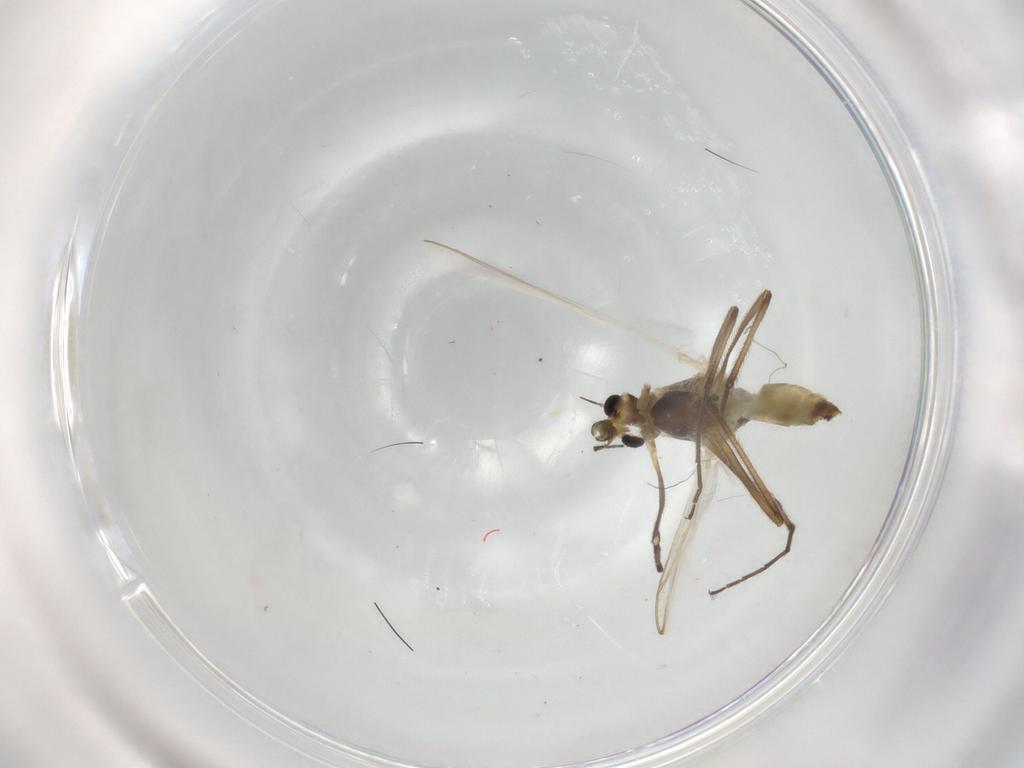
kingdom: Animalia
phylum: Arthropoda
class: Insecta
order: Diptera
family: Chironomidae
